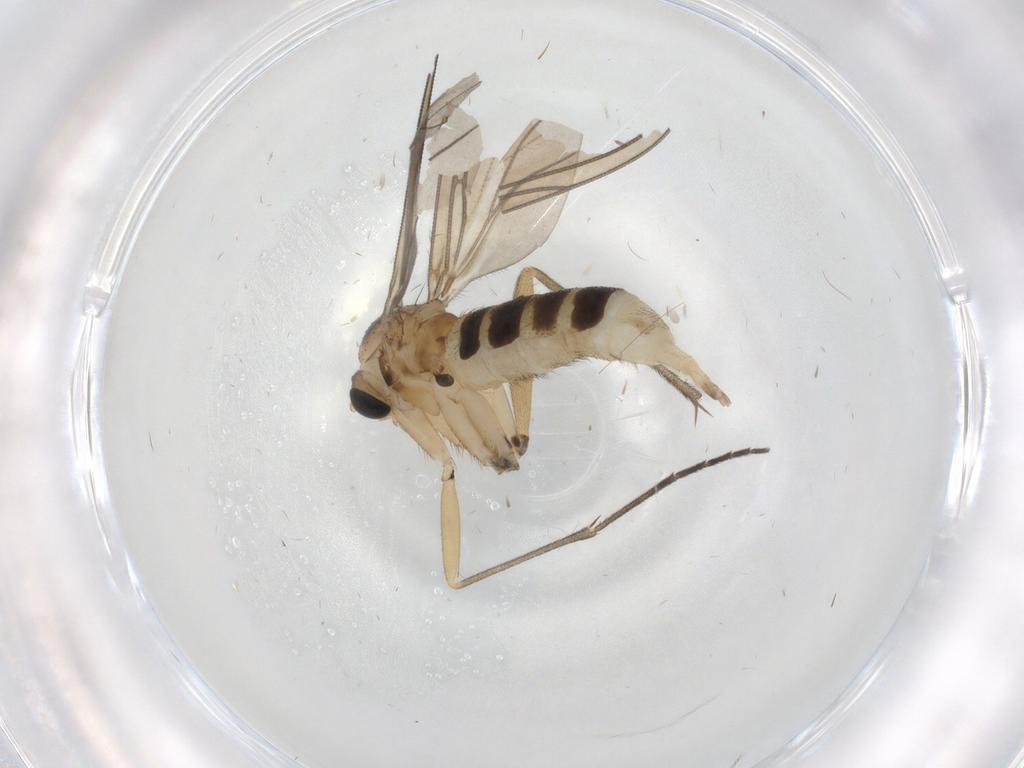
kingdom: Animalia
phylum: Arthropoda
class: Insecta
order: Diptera
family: Sciaridae
